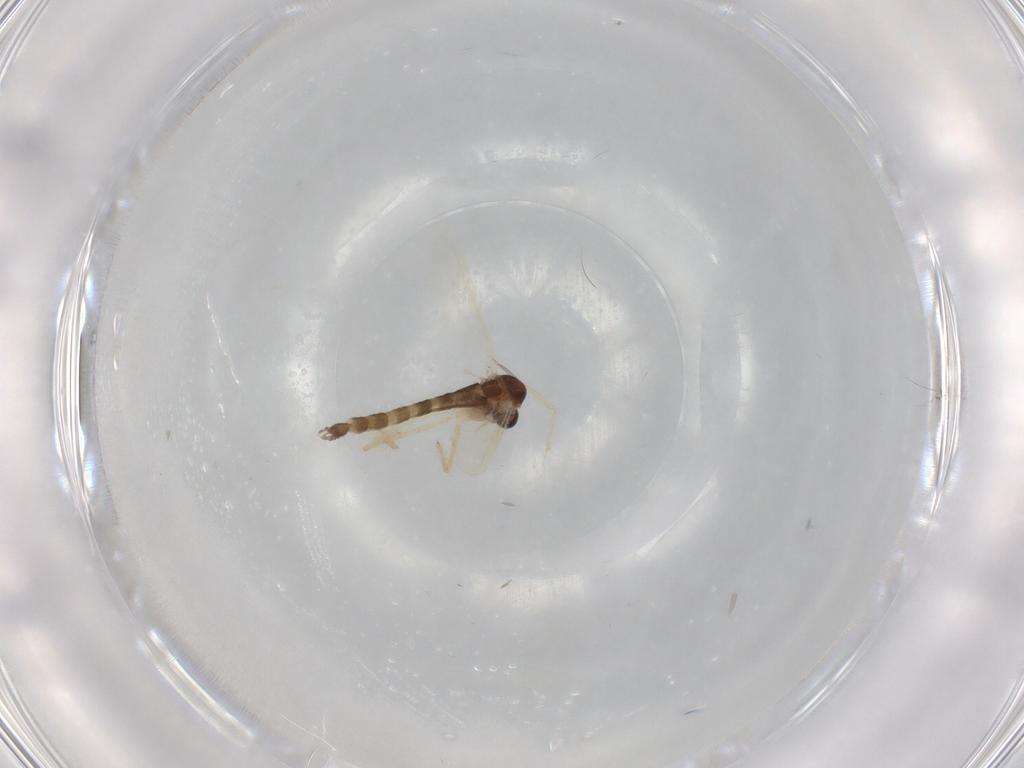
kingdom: Animalia
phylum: Arthropoda
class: Insecta
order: Diptera
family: Chironomidae
